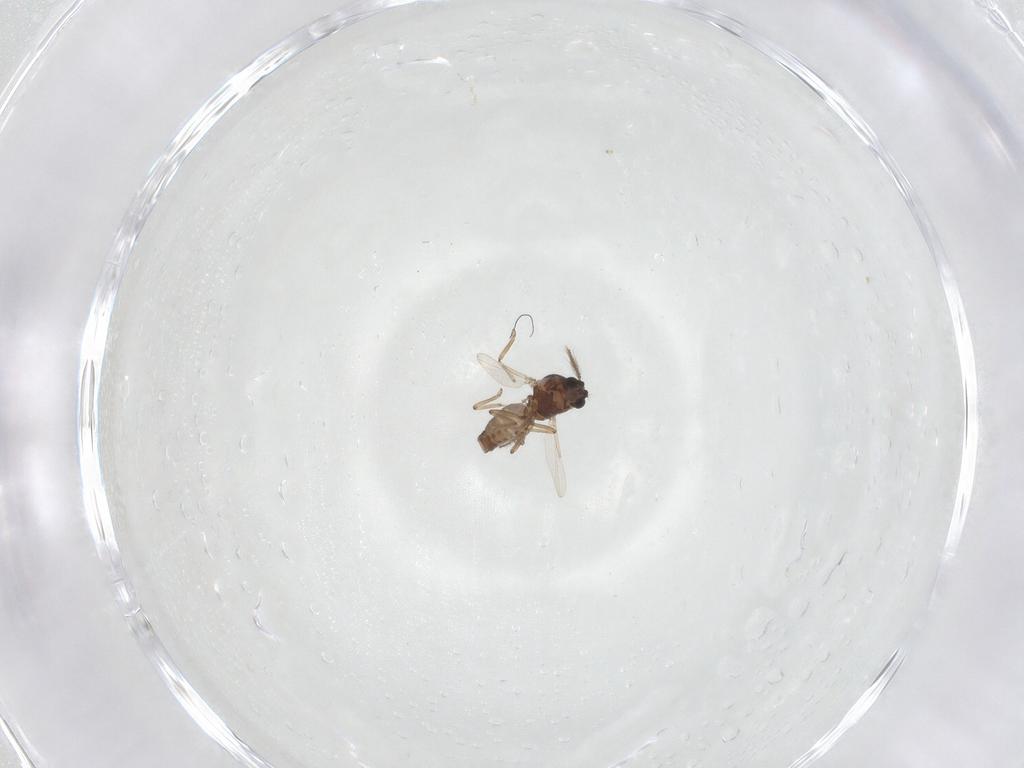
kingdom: Animalia
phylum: Arthropoda
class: Insecta
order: Diptera
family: Ceratopogonidae
